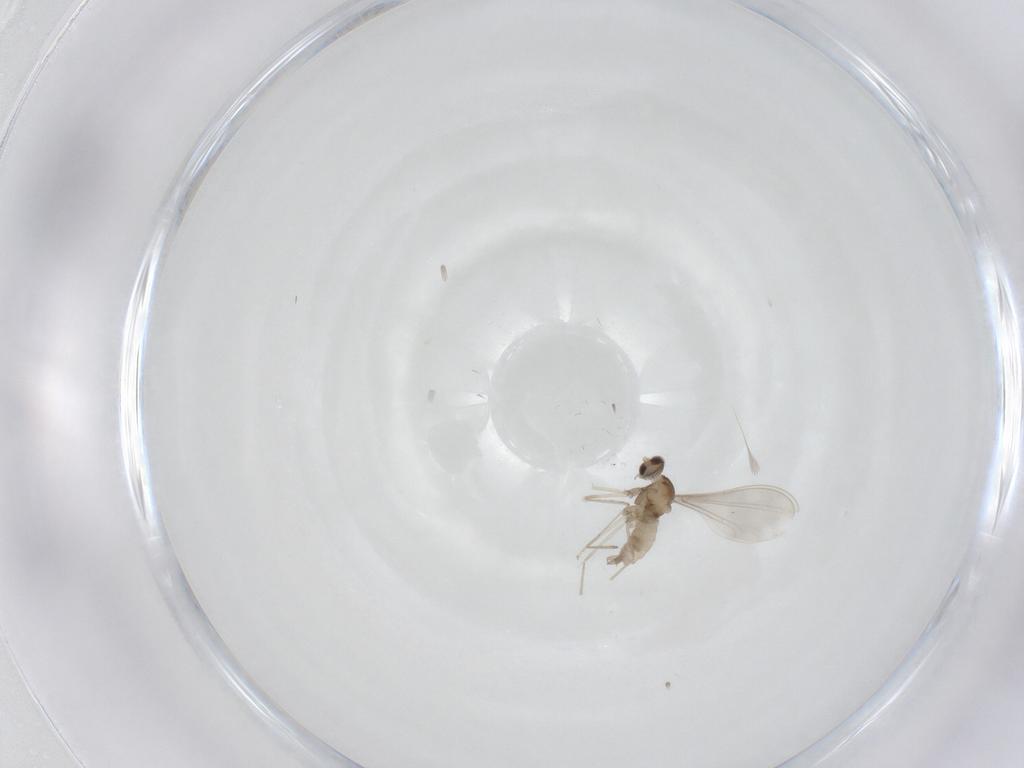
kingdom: Animalia
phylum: Arthropoda
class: Insecta
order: Diptera
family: Cecidomyiidae
